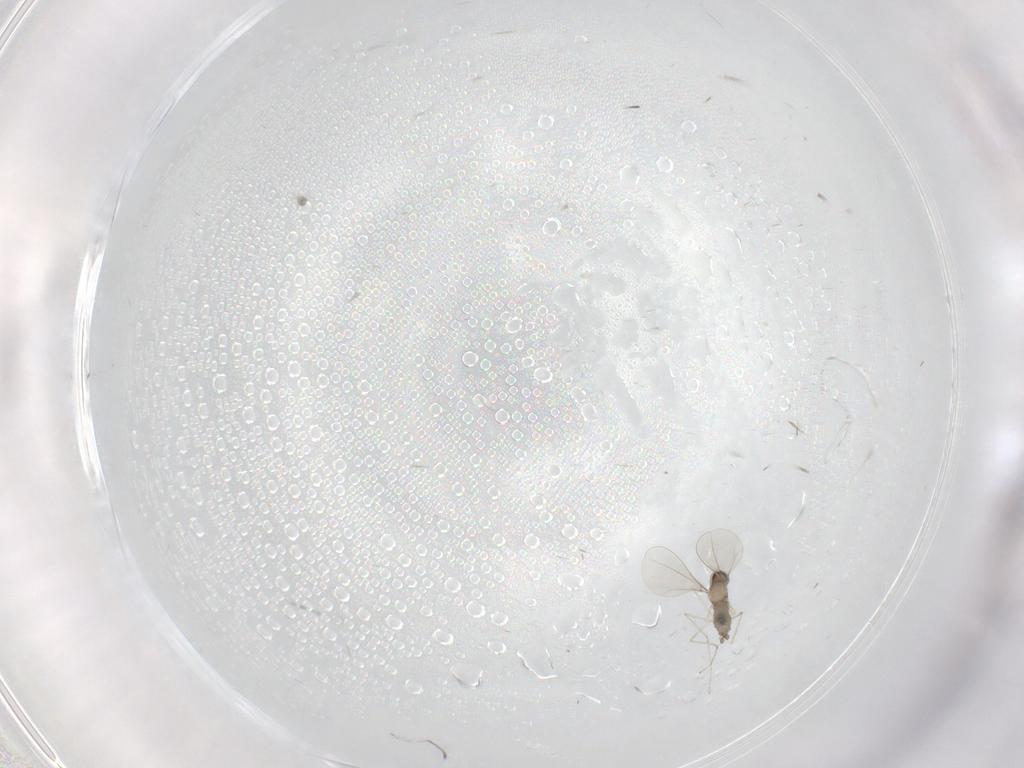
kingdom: Animalia
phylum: Arthropoda
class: Insecta
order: Diptera
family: Cecidomyiidae
